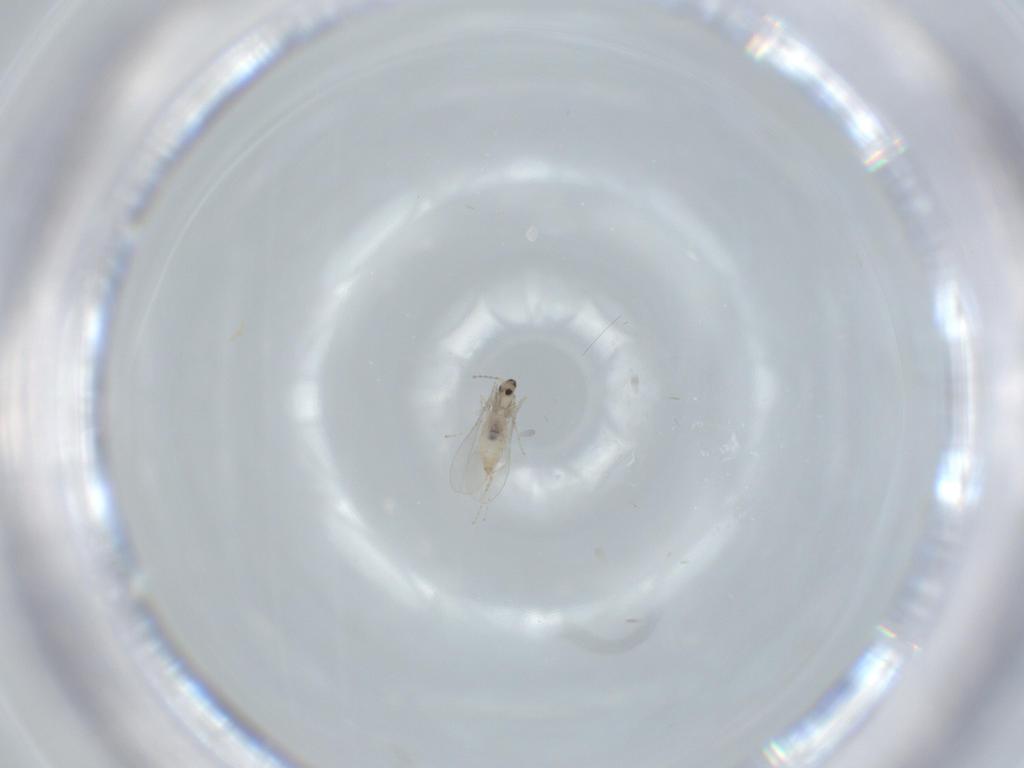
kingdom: Animalia
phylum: Arthropoda
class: Insecta
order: Diptera
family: Cecidomyiidae
